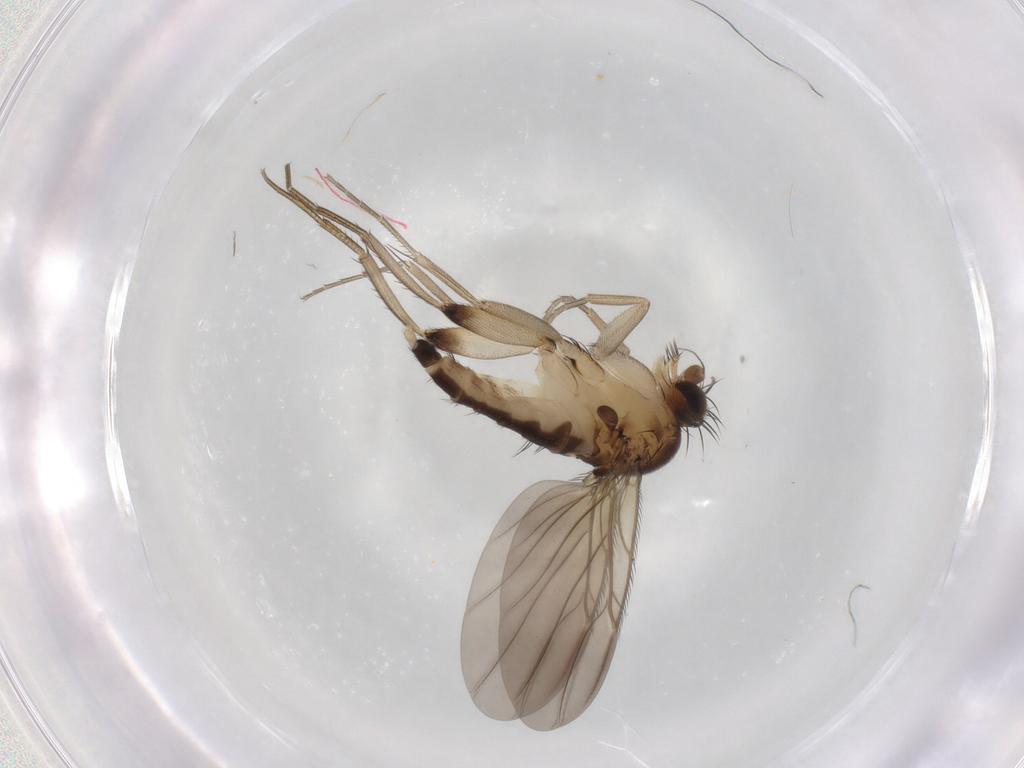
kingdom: Animalia
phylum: Arthropoda
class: Insecta
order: Diptera
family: Phoridae
